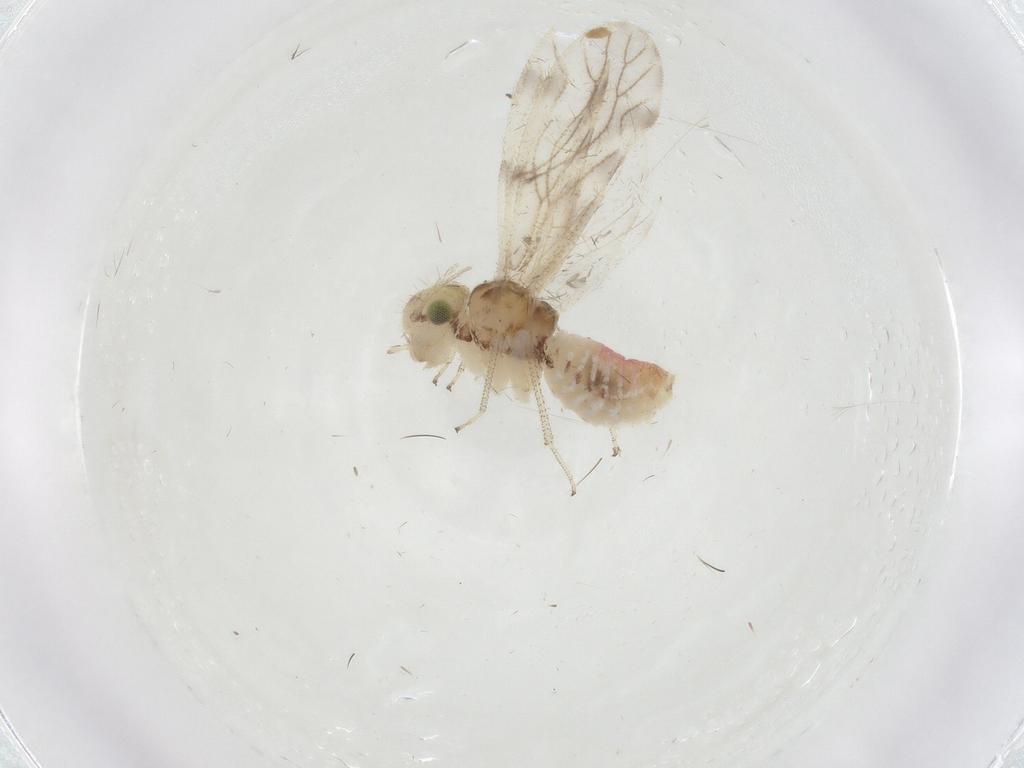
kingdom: Animalia
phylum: Arthropoda
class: Insecta
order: Psocodea
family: Pseudocaeciliidae
